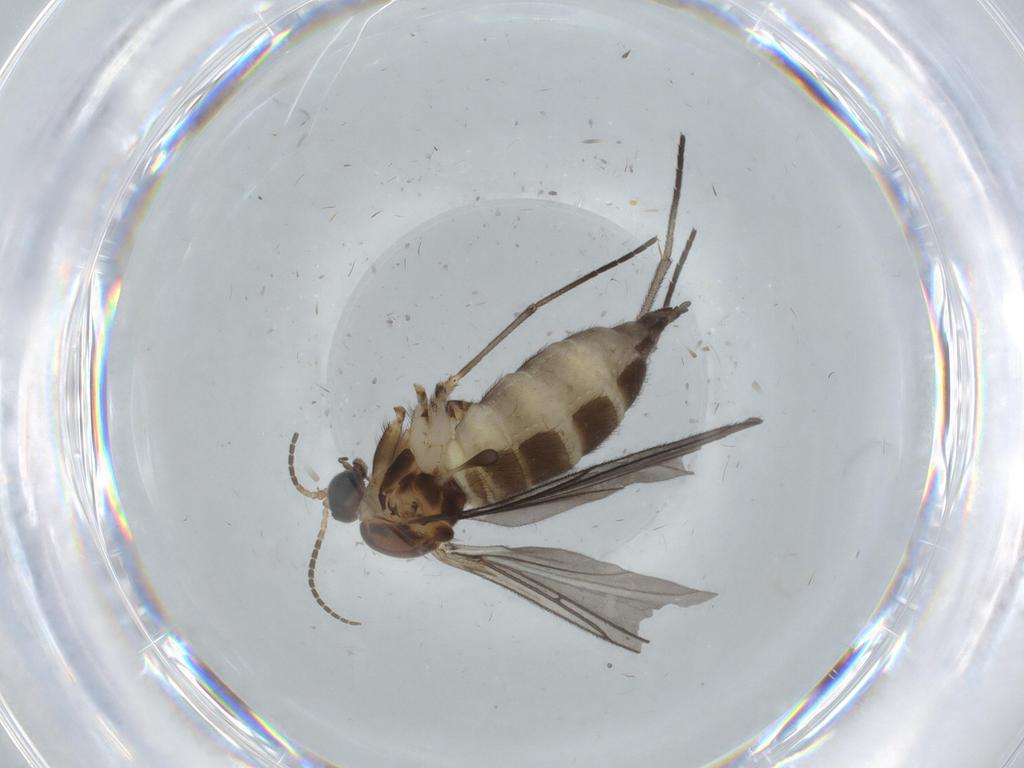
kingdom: Animalia
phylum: Arthropoda
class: Insecta
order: Diptera
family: Sciaridae
